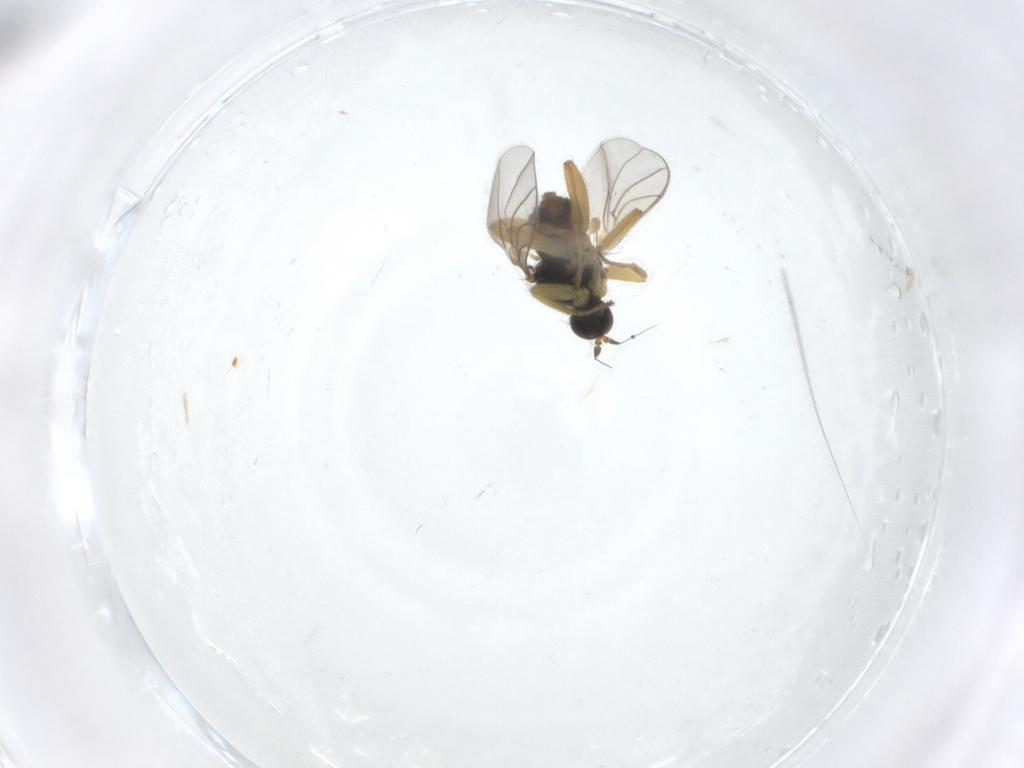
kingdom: Animalia
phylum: Arthropoda
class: Insecta
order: Diptera
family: Hybotidae
